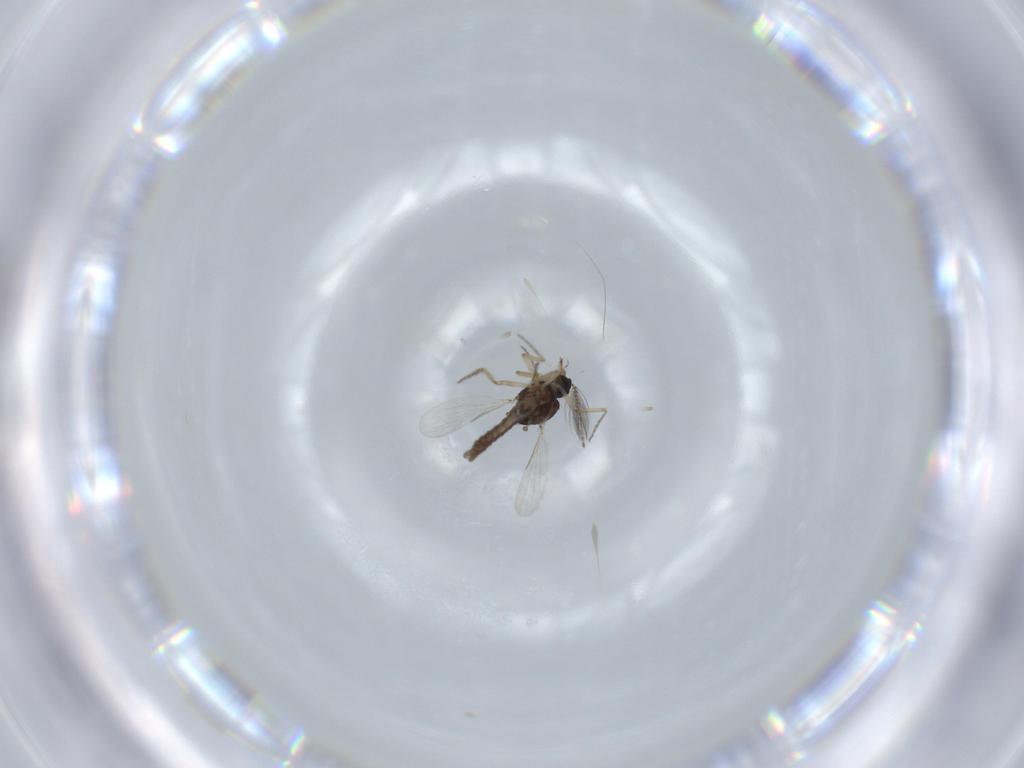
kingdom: Animalia
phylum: Arthropoda
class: Insecta
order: Diptera
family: Ceratopogonidae
